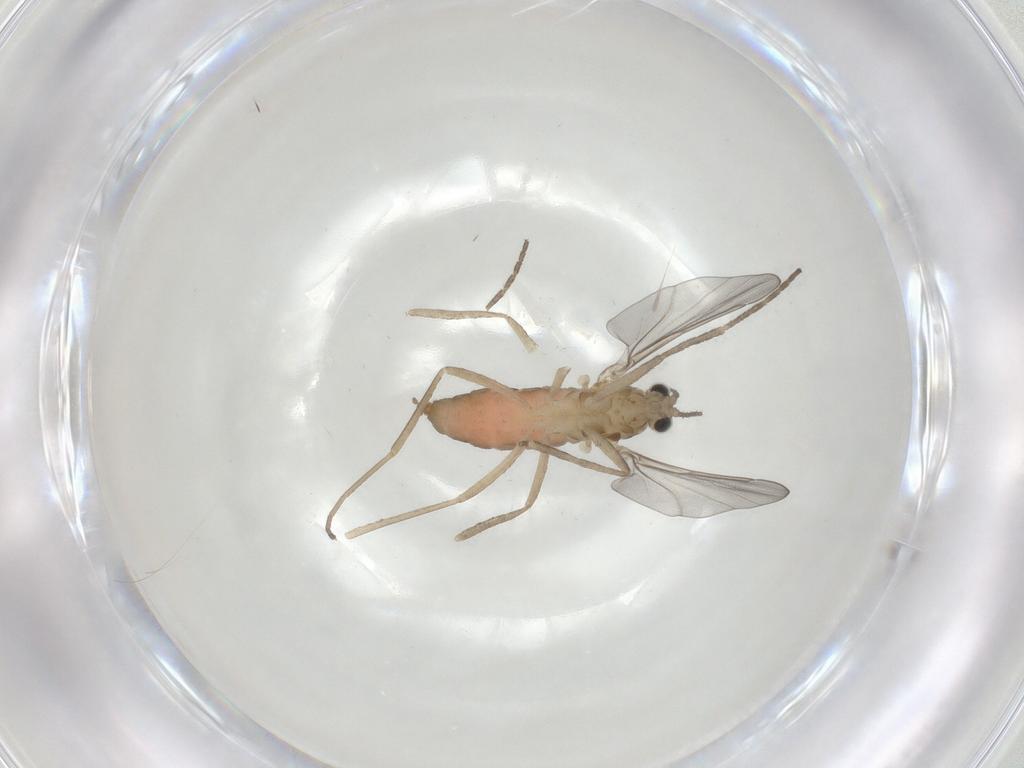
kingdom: Animalia
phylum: Arthropoda
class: Insecta
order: Diptera
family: Cecidomyiidae
